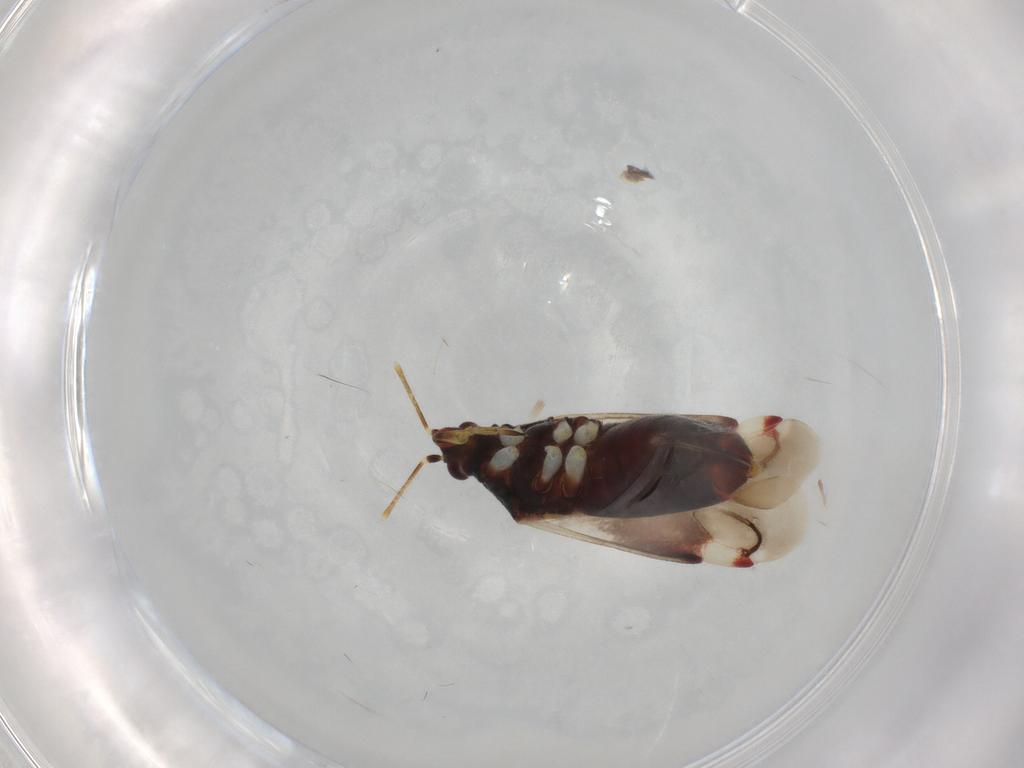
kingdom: Animalia
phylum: Arthropoda
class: Insecta
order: Hemiptera
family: Miridae
